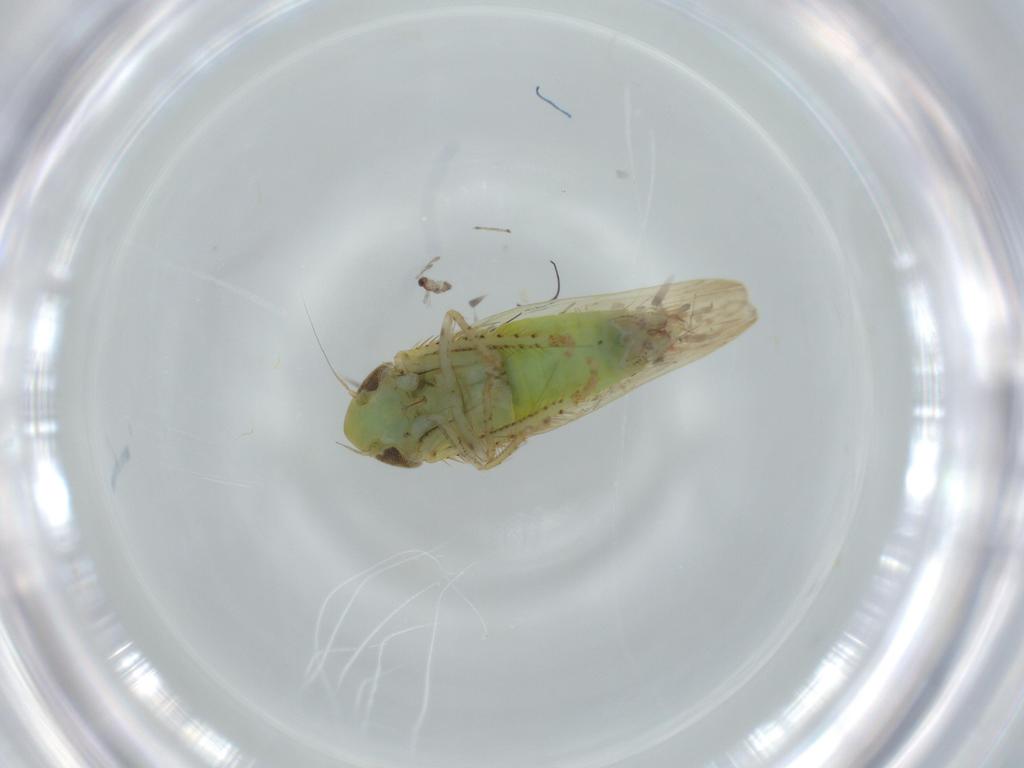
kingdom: Animalia
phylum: Arthropoda
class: Insecta
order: Hemiptera
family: Cicadellidae
